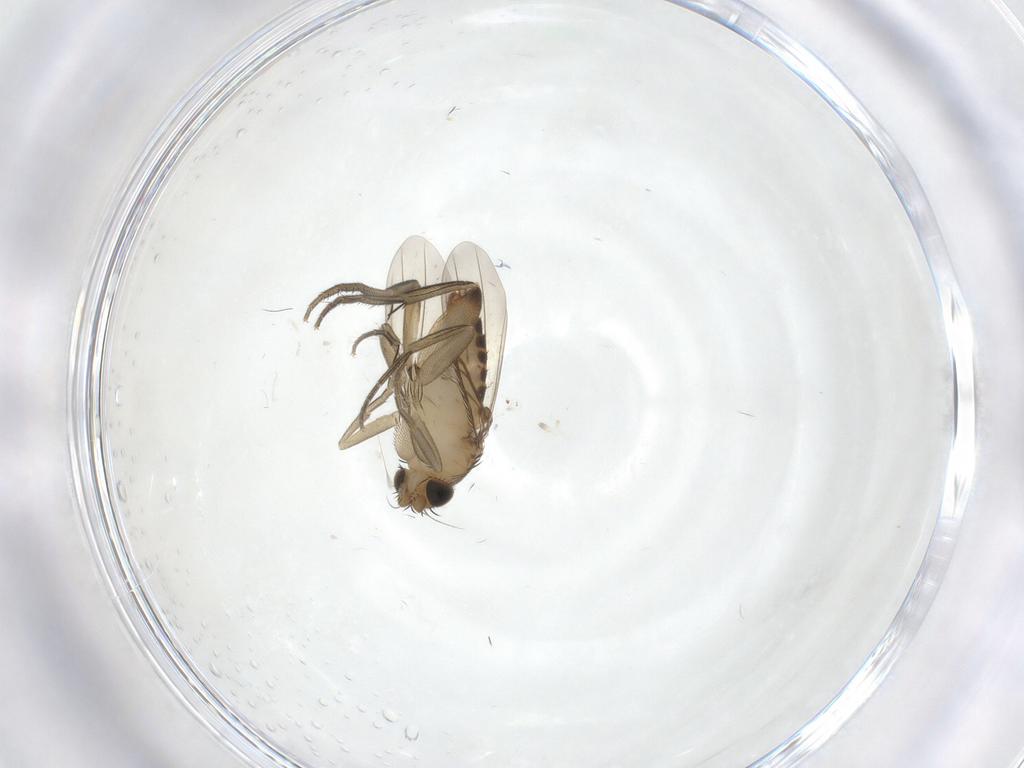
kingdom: Animalia
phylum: Arthropoda
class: Insecta
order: Diptera
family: Phoridae
